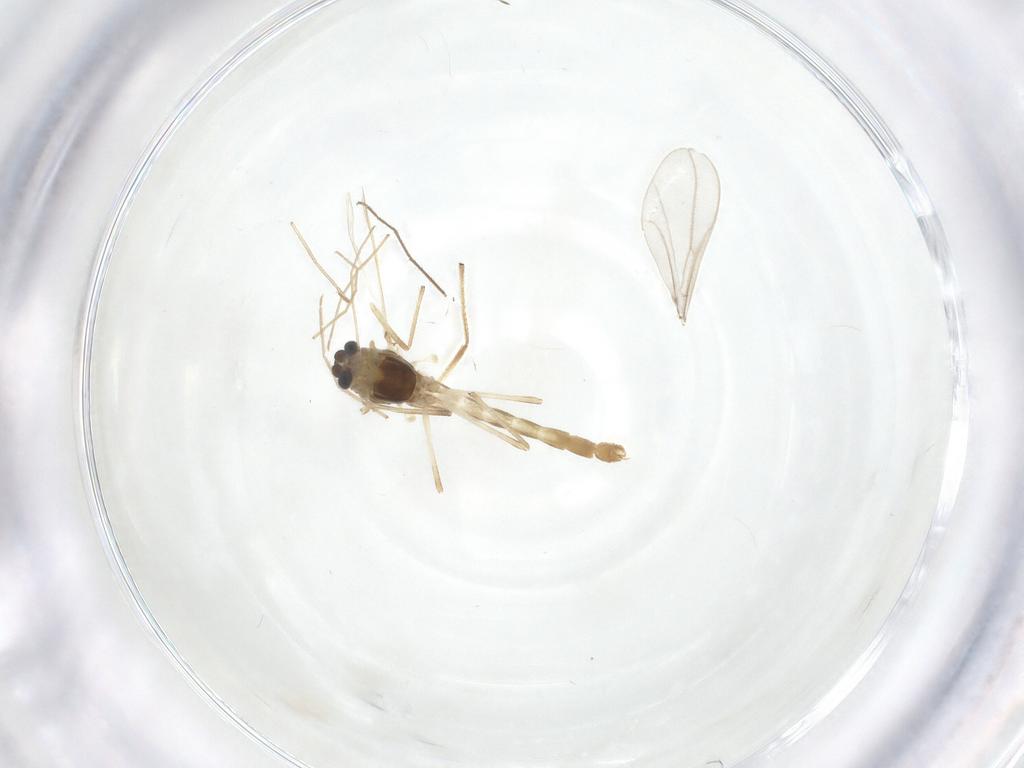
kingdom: Animalia
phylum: Arthropoda
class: Insecta
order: Diptera
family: Chironomidae
